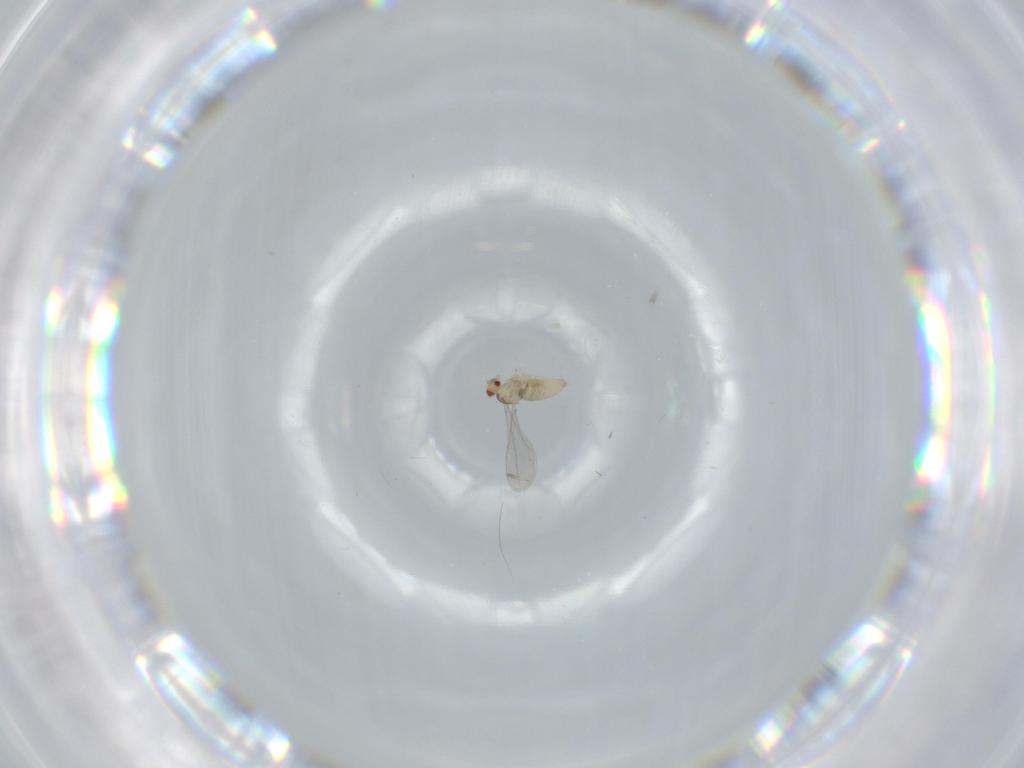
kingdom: Animalia
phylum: Arthropoda
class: Insecta
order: Diptera
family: Cecidomyiidae
